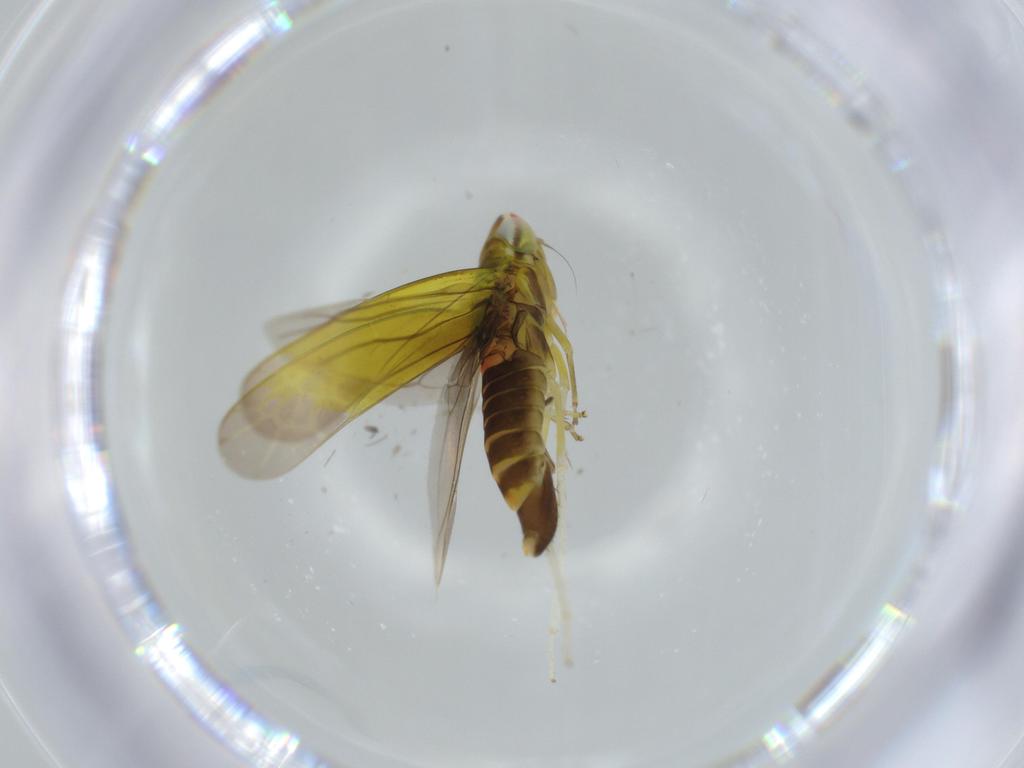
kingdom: Animalia
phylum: Arthropoda
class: Insecta
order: Hemiptera
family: Cicadellidae
